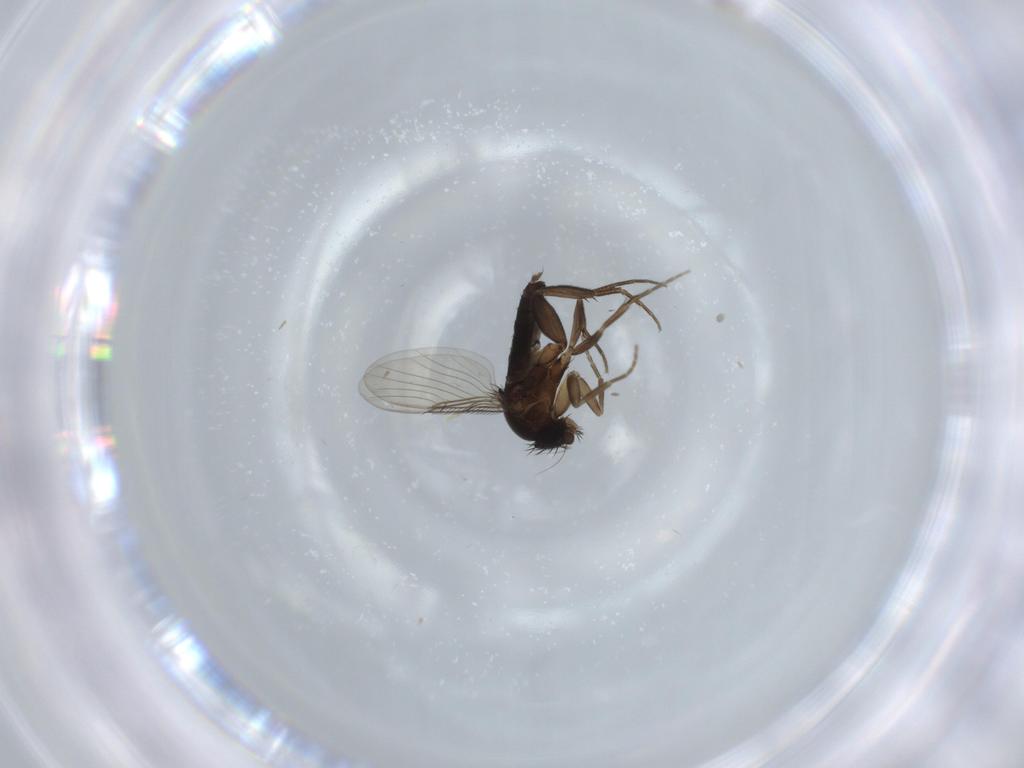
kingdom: Animalia
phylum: Arthropoda
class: Insecta
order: Diptera
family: Phoridae
